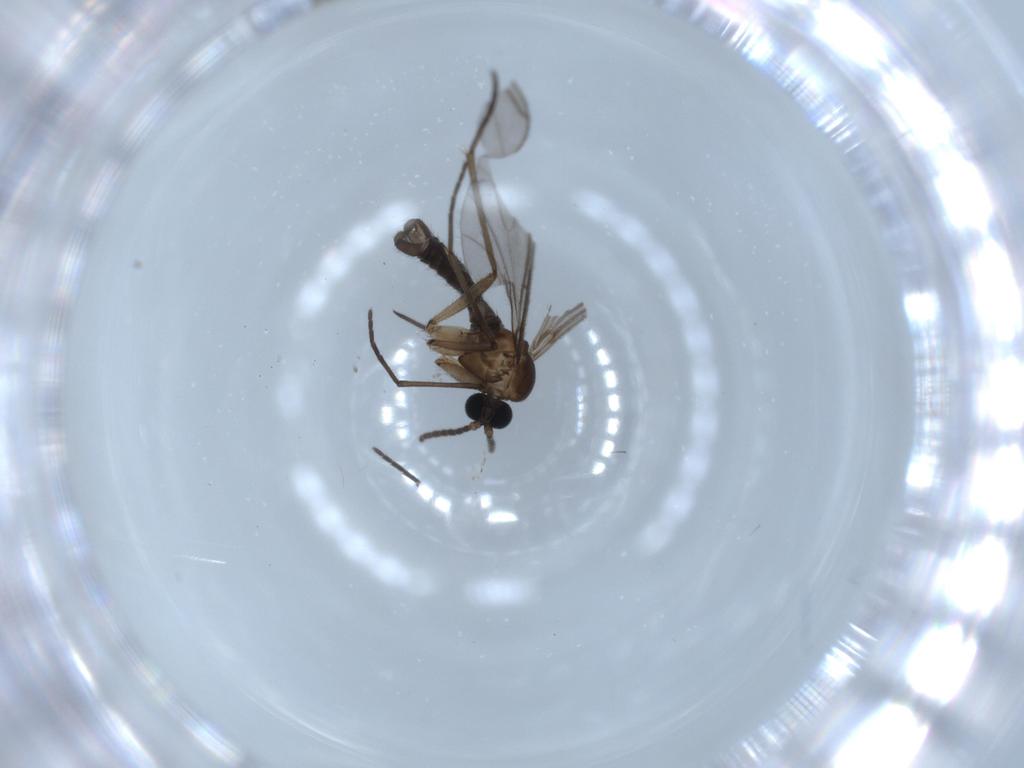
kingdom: Animalia
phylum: Arthropoda
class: Insecta
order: Diptera
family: Sciaridae
